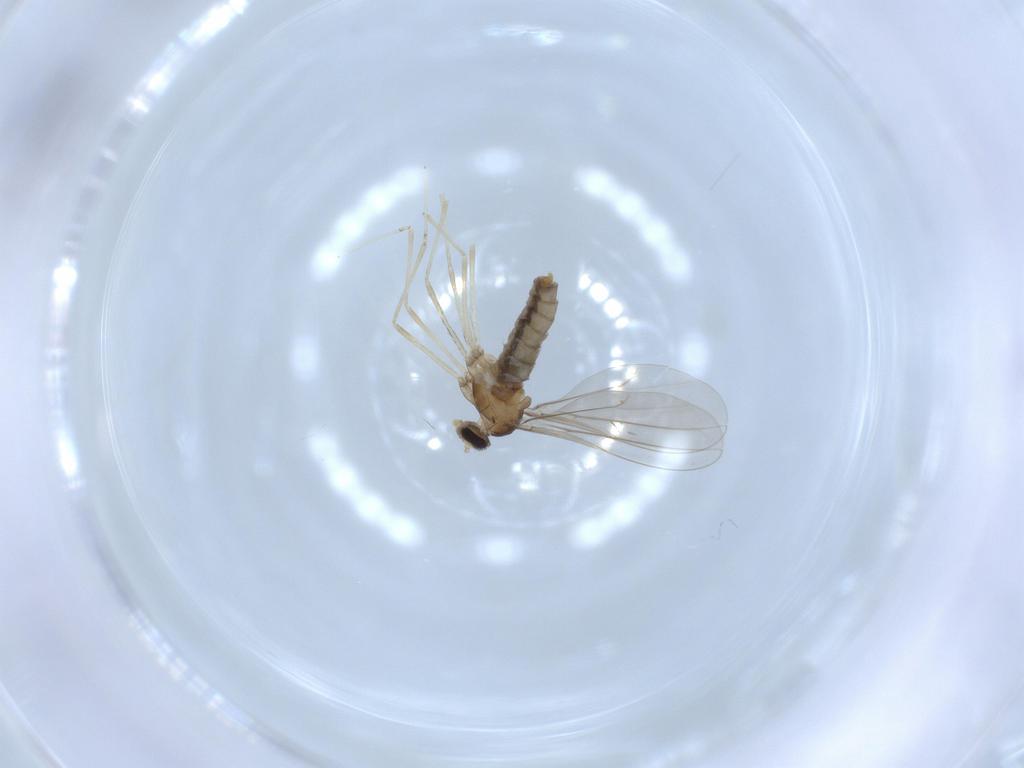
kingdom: Animalia
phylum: Arthropoda
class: Insecta
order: Diptera
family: Cecidomyiidae
